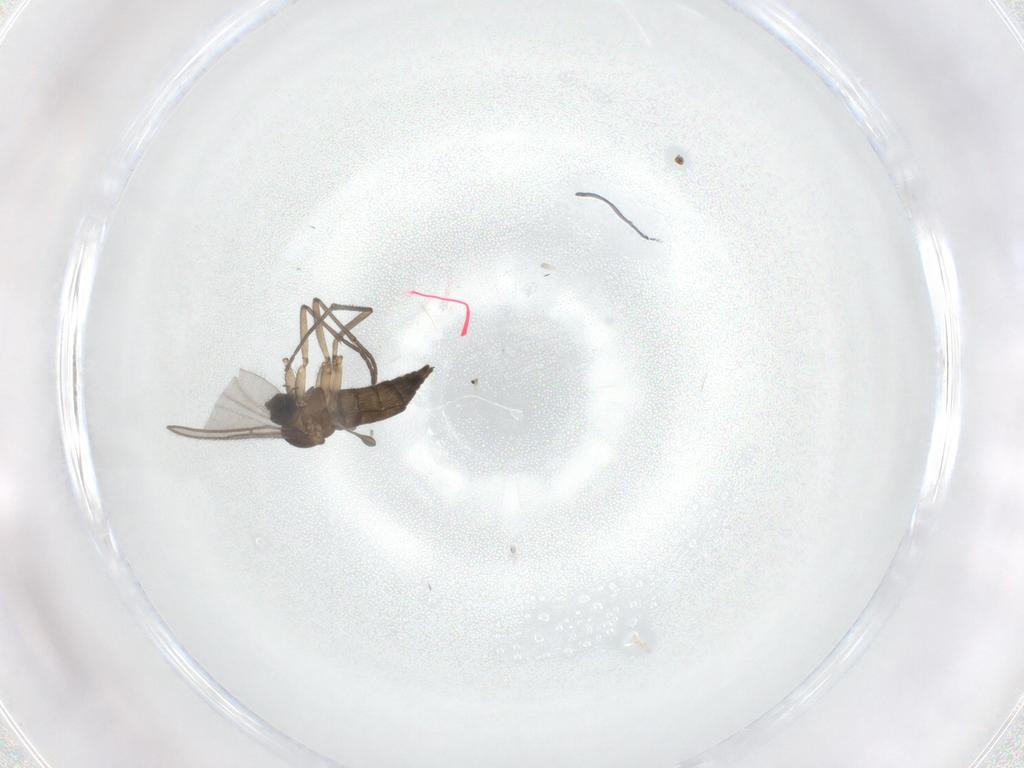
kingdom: Animalia
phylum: Arthropoda
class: Insecta
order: Diptera
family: Sciaridae
